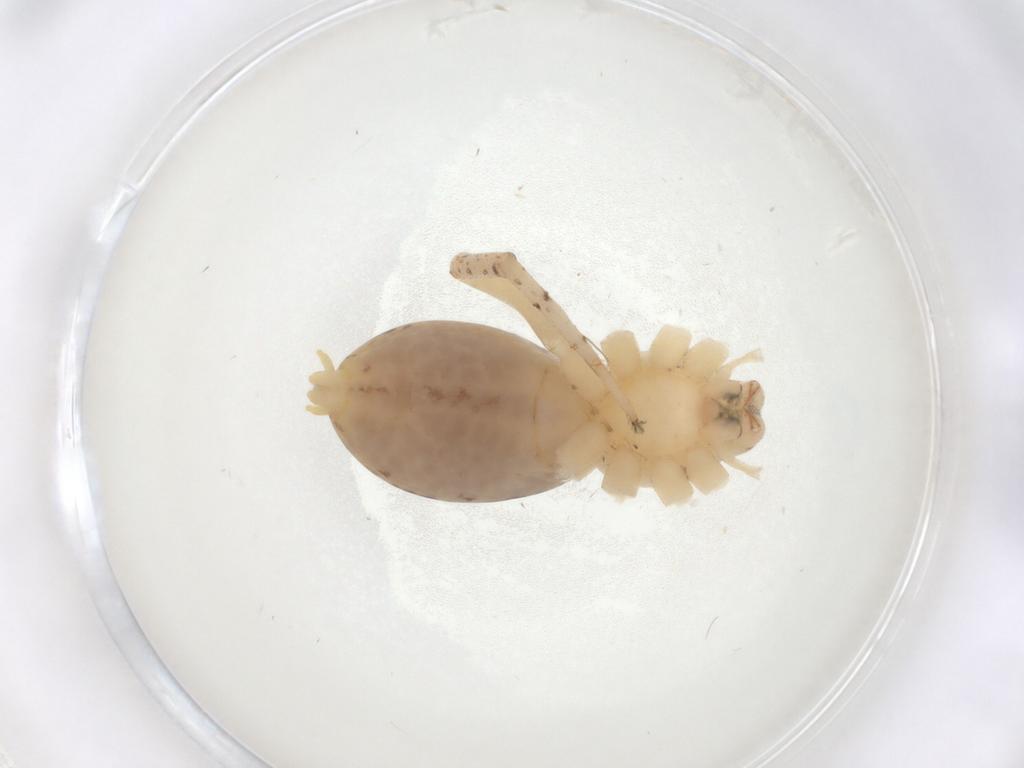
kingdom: Animalia
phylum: Arthropoda
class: Arachnida
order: Araneae
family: Anyphaenidae
